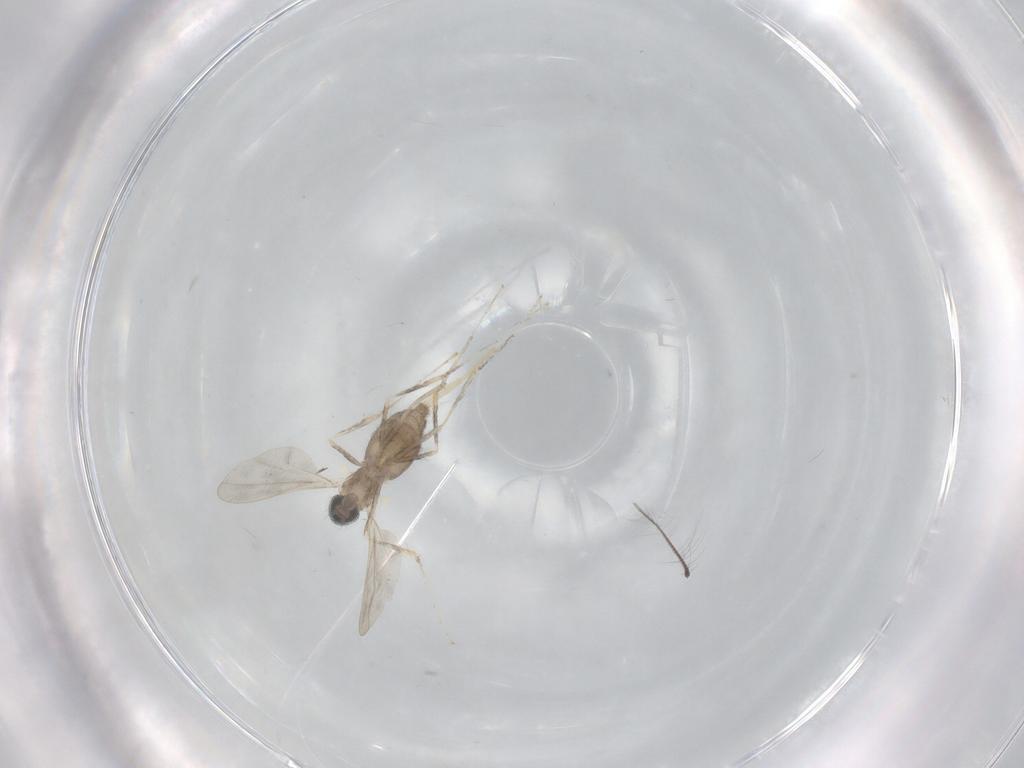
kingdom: Animalia
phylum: Arthropoda
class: Insecta
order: Diptera
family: Cecidomyiidae
